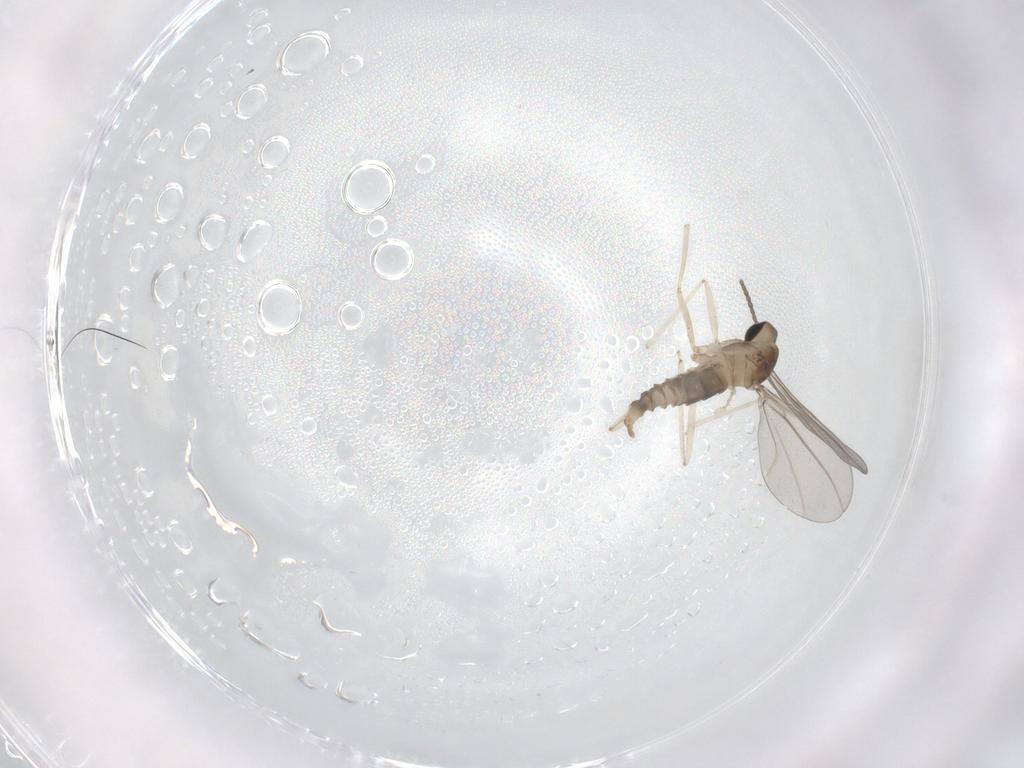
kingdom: Animalia
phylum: Arthropoda
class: Insecta
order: Diptera
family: Cecidomyiidae
